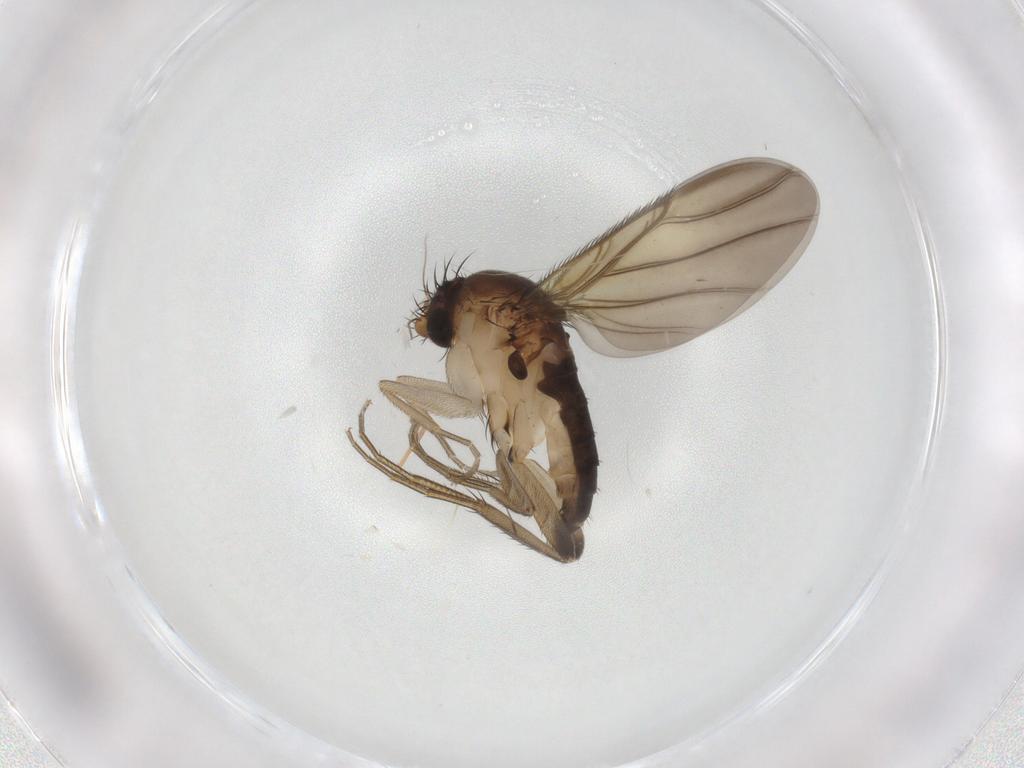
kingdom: Animalia
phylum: Arthropoda
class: Insecta
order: Diptera
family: Phoridae
